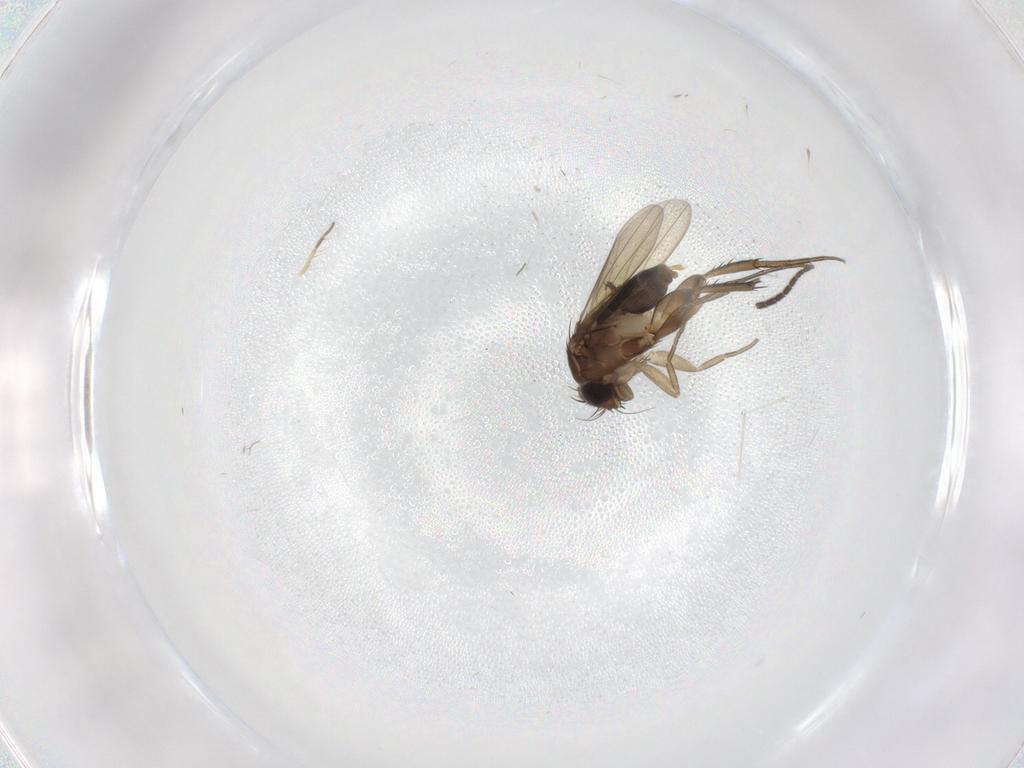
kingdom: Animalia
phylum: Arthropoda
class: Insecta
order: Diptera
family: Phoridae
